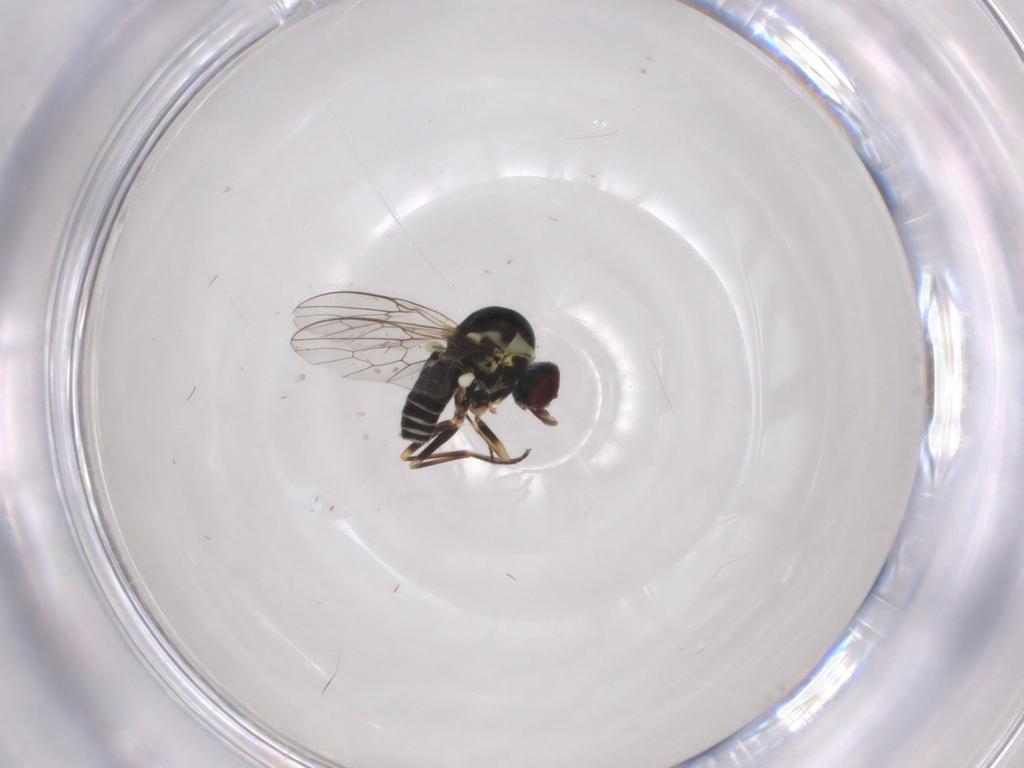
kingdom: Animalia
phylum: Arthropoda
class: Insecta
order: Diptera
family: Bombyliidae
